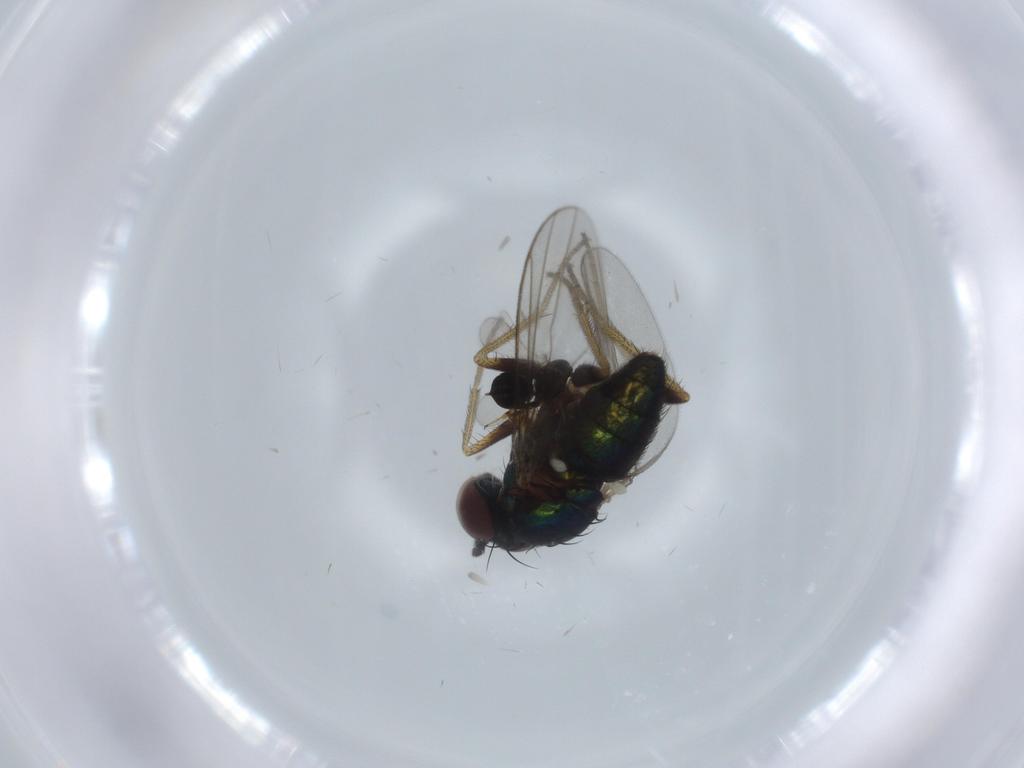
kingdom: Animalia
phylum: Arthropoda
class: Insecta
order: Diptera
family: Dolichopodidae
